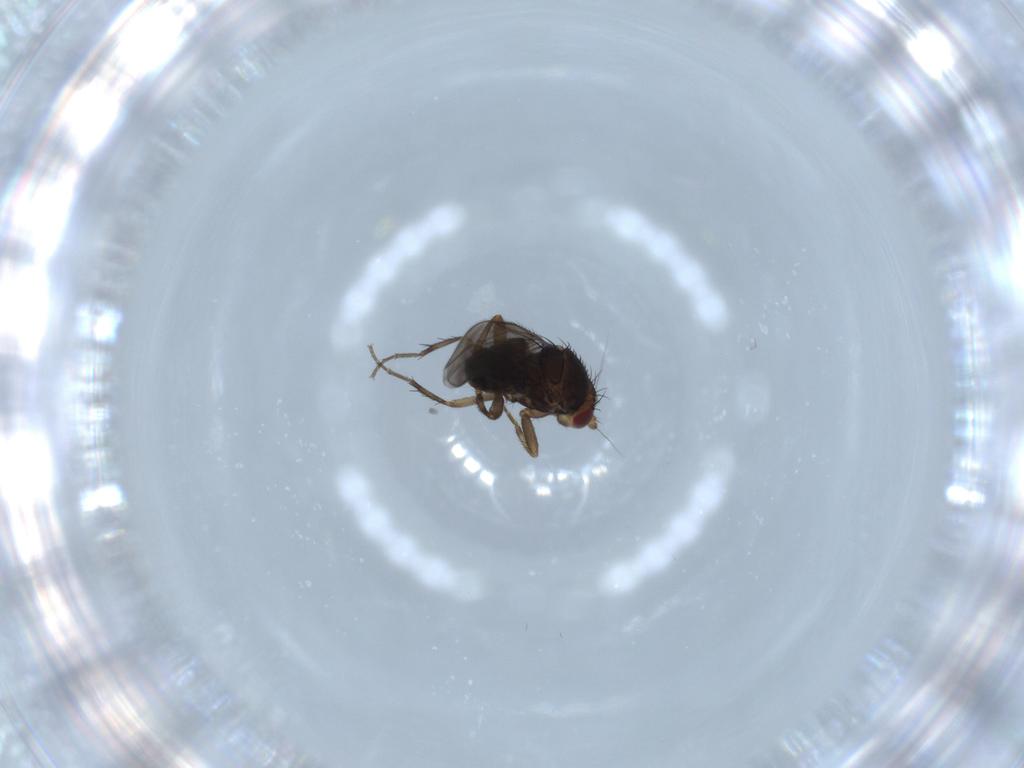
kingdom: Animalia
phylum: Arthropoda
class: Insecta
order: Diptera
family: Sphaeroceridae
